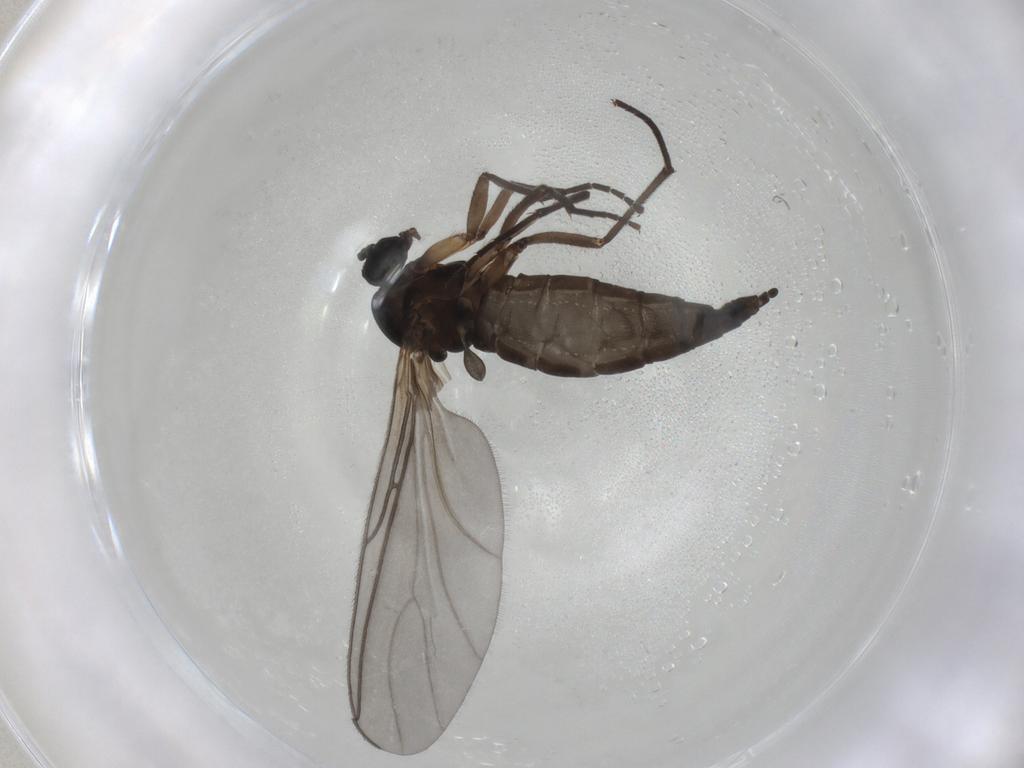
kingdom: Animalia
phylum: Arthropoda
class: Insecta
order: Diptera
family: Sciaridae
